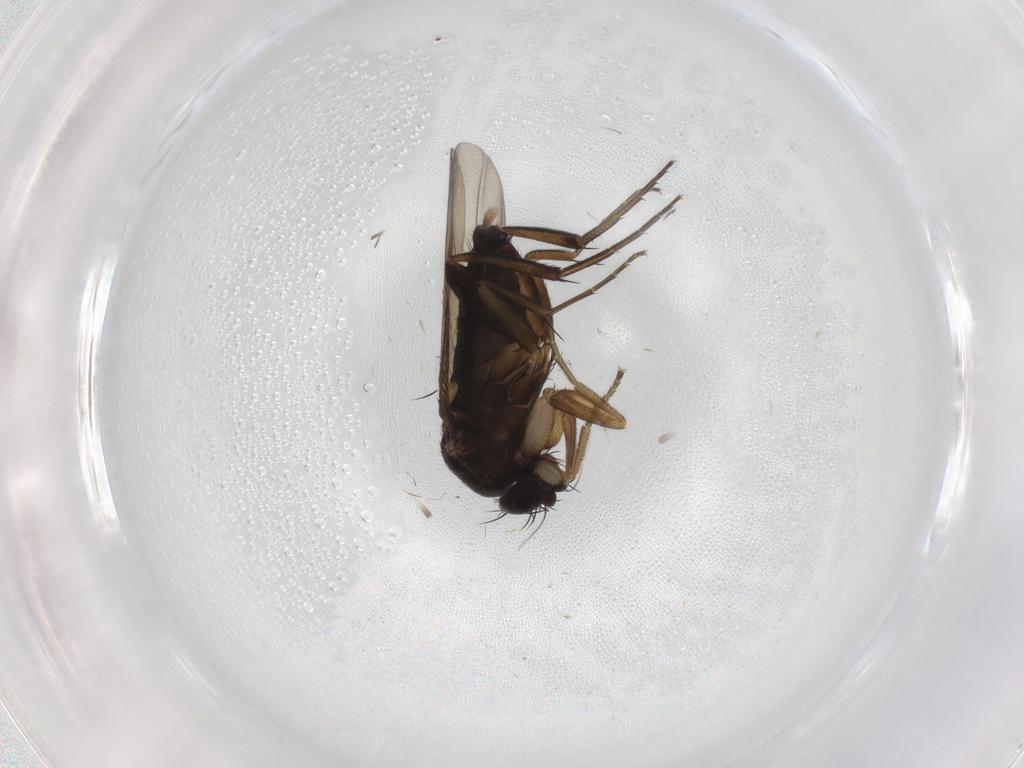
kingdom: Animalia
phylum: Arthropoda
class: Insecta
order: Diptera
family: Phoridae
